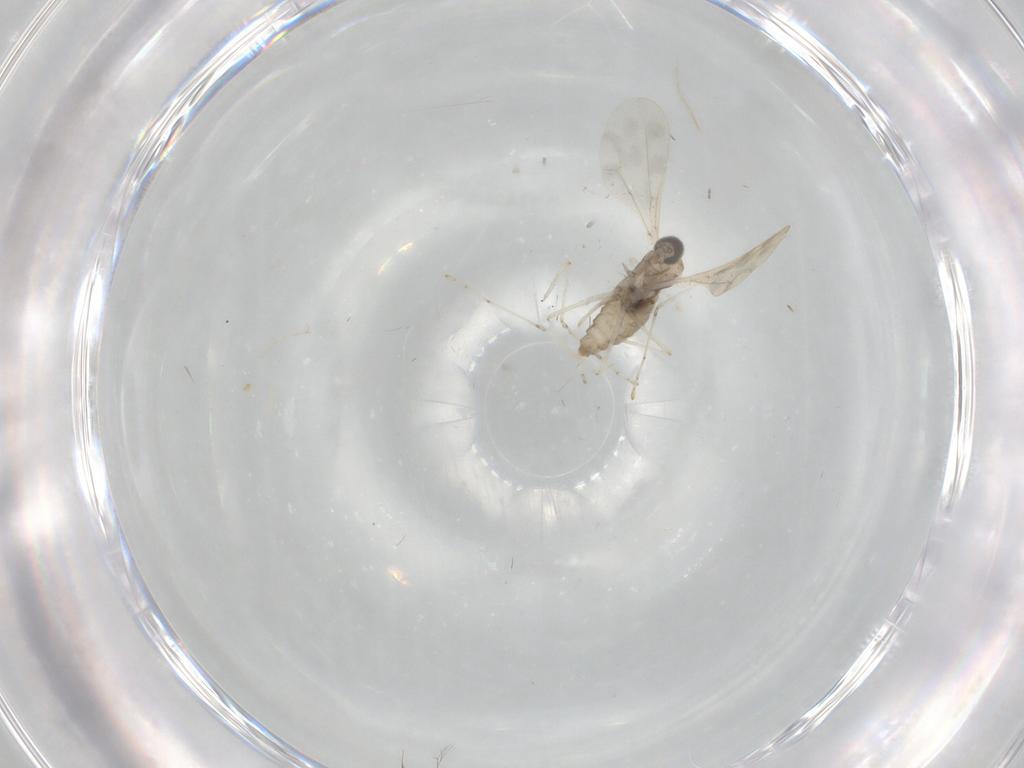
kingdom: Animalia
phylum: Arthropoda
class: Insecta
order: Diptera
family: Cecidomyiidae
